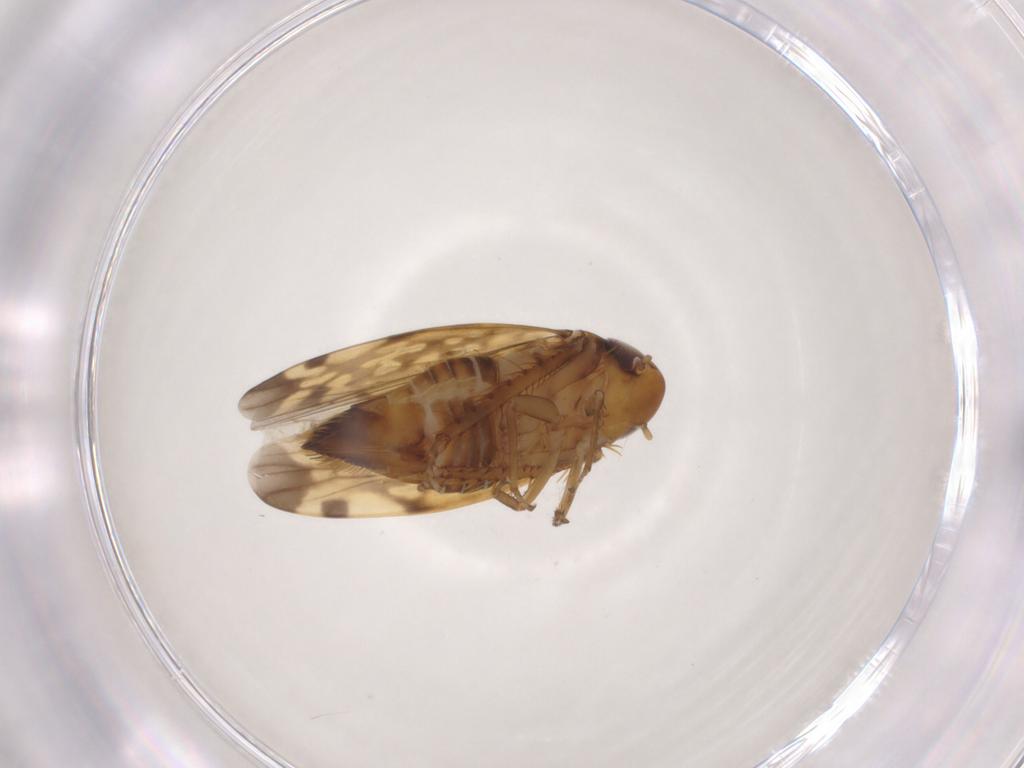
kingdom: Animalia
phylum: Arthropoda
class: Insecta
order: Hemiptera
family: Cicadellidae
